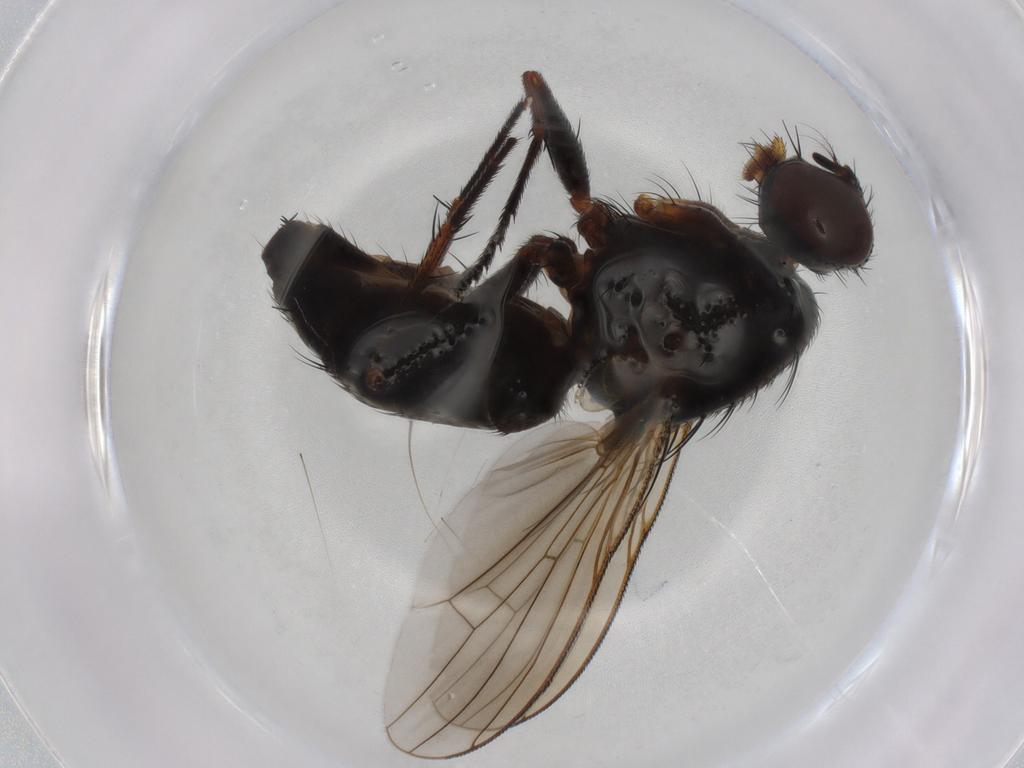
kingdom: Animalia
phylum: Arthropoda
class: Insecta
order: Diptera
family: Muscidae
